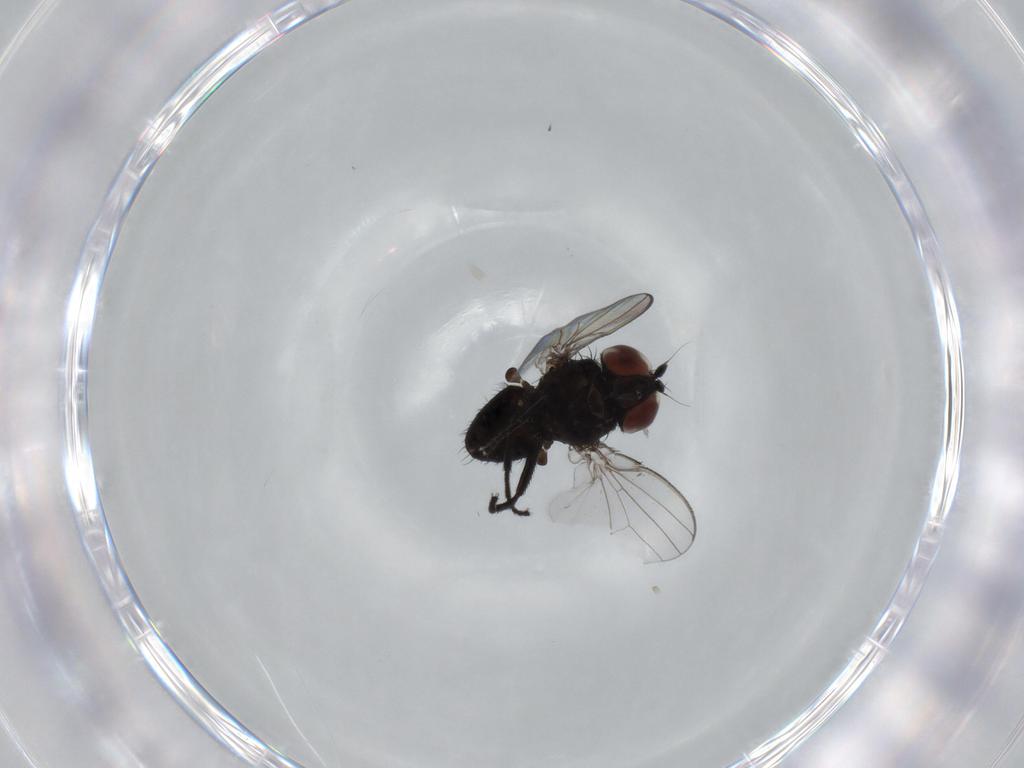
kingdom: Animalia
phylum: Arthropoda
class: Insecta
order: Diptera
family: Milichiidae
